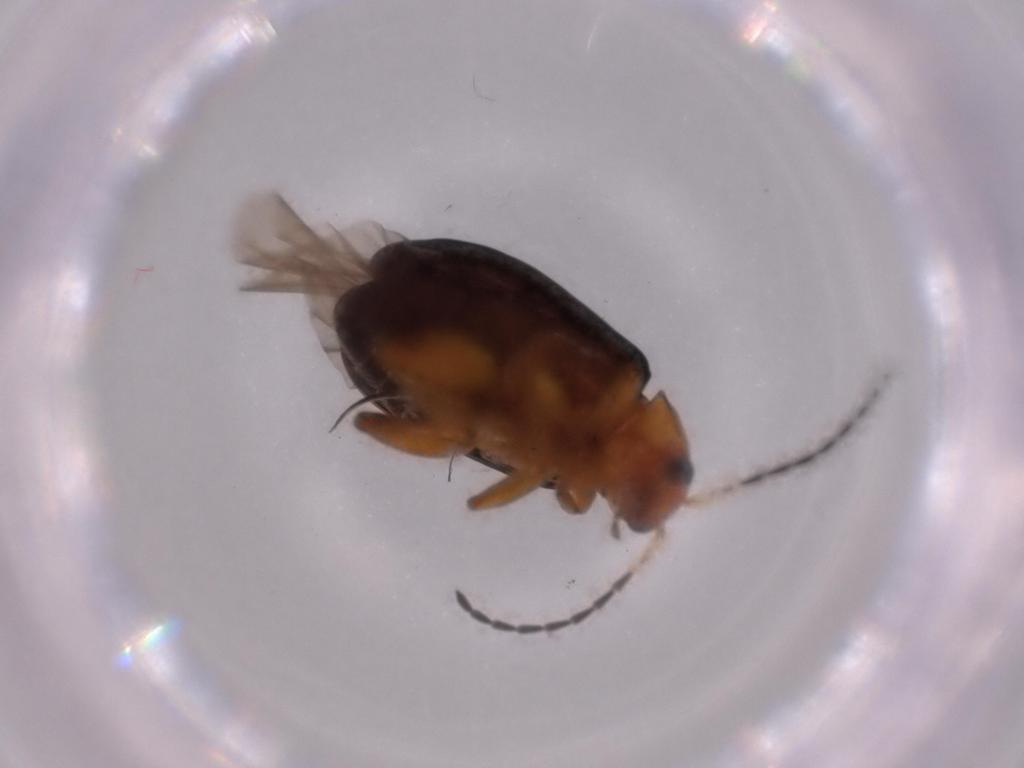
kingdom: Animalia
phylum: Arthropoda
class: Insecta
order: Coleoptera
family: Chrysomelidae
